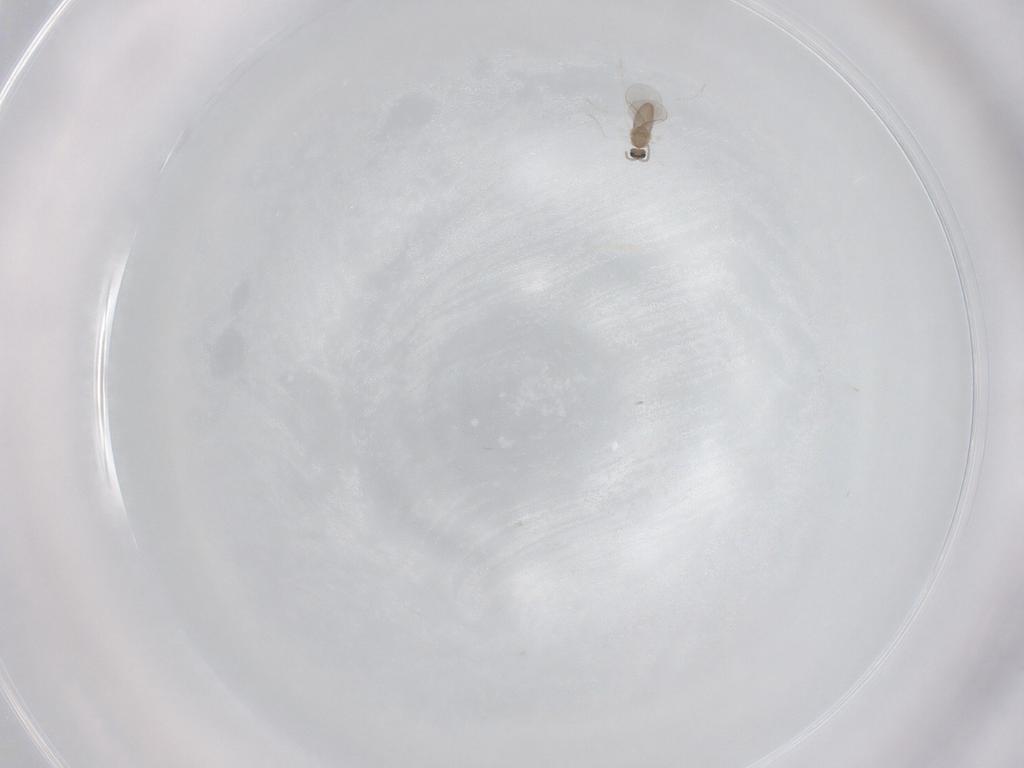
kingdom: Animalia
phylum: Arthropoda
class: Insecta
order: Diptera
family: Cecidomyiidae
